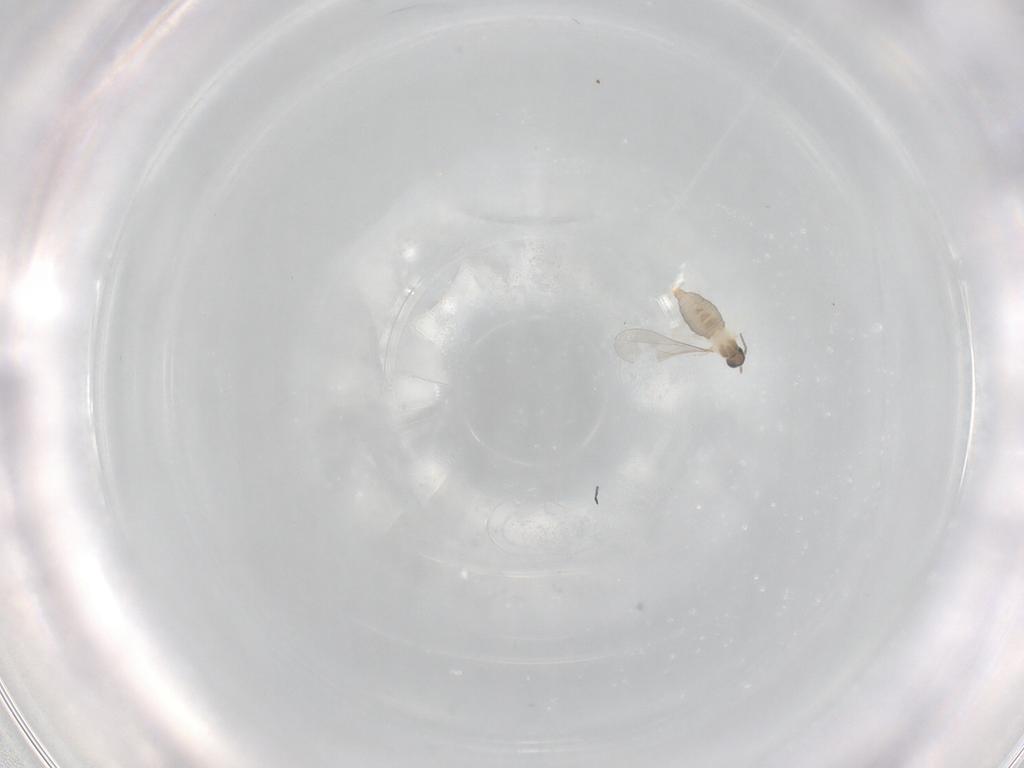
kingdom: Animalia
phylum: Arthropoda
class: Insecta
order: Diptera
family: Cecidomyiidae
